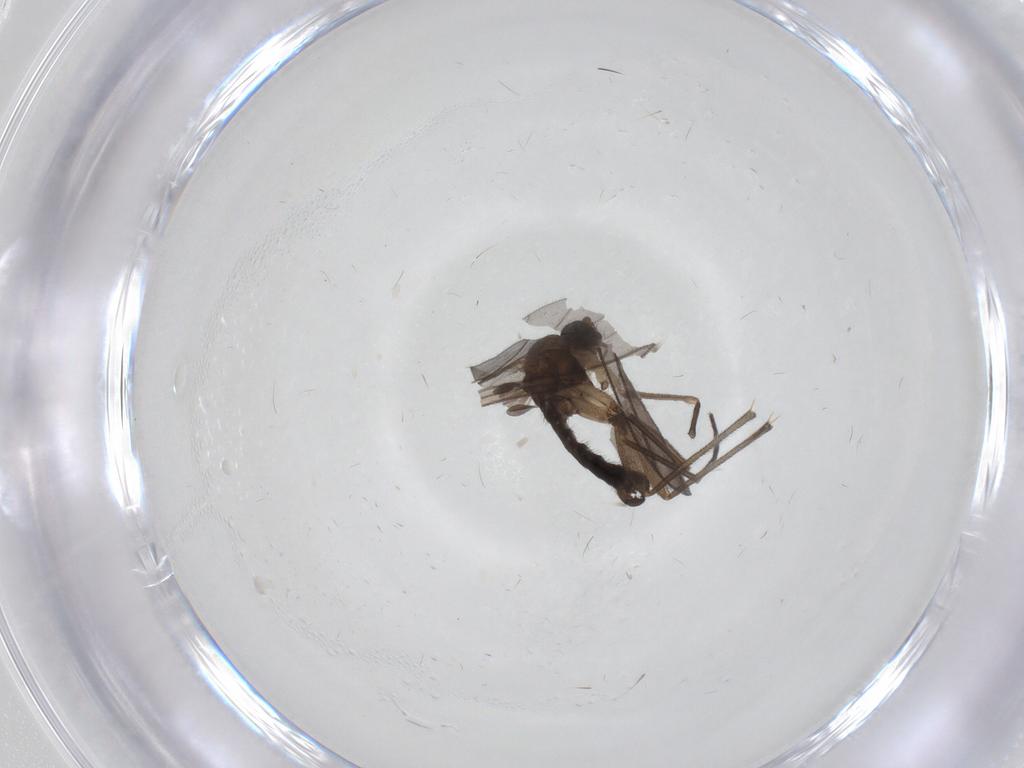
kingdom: Animalia
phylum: Arthropoda
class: Insecta
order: Diptera
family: Sciaridae
